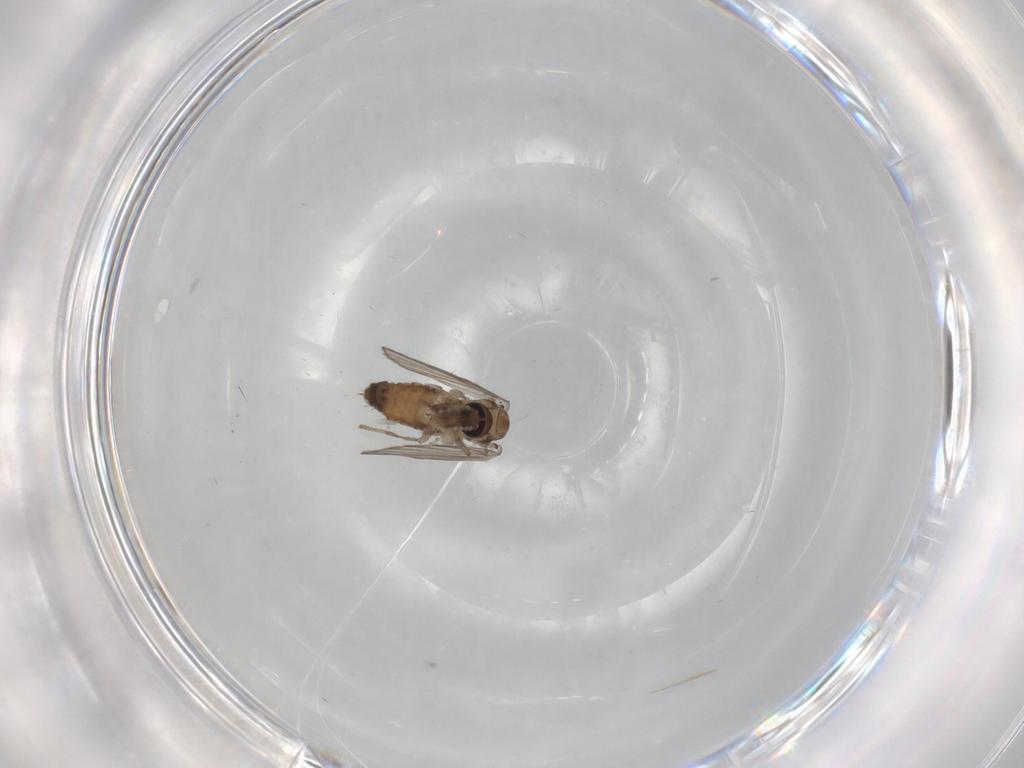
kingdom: Animalia
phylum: Arthropoda
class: Insecta
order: Diptera
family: Psychodidae
